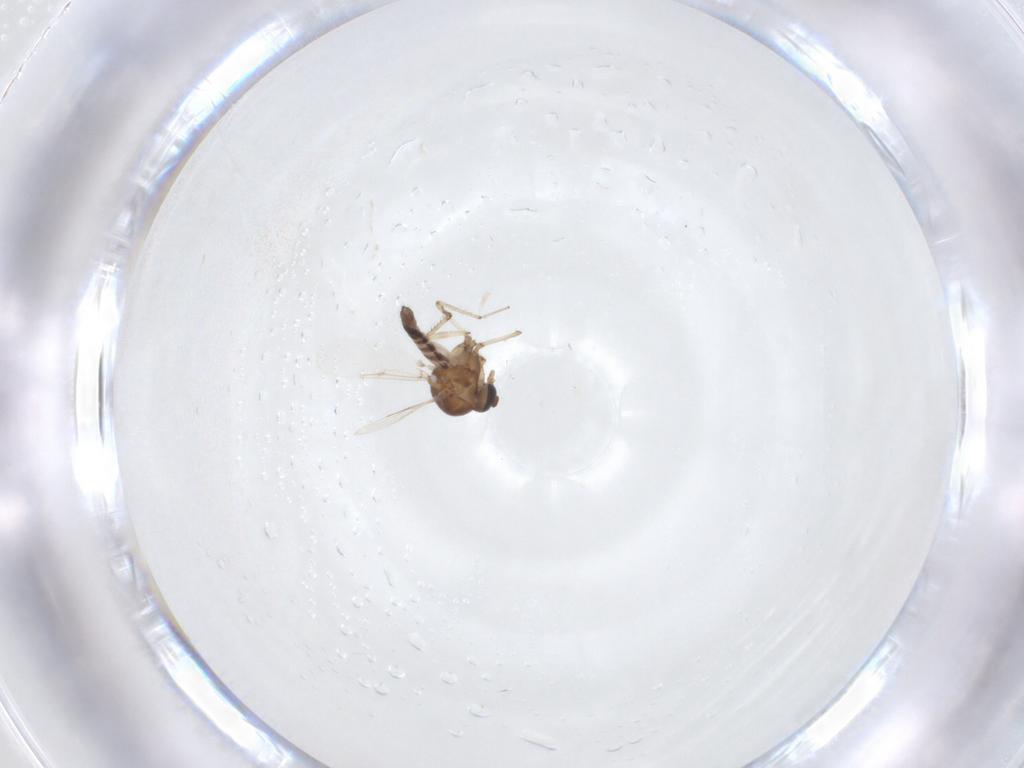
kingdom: Animalia
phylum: Arthropoda
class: Insecta
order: Diptera
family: Ceratopogonidae
